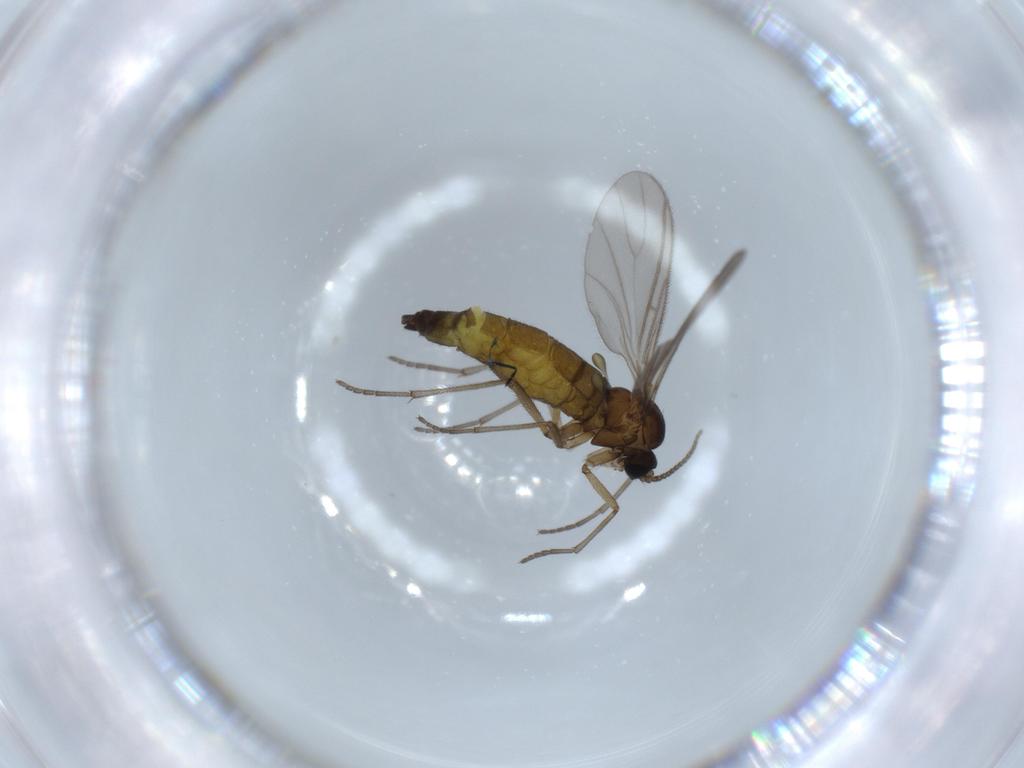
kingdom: Animalia
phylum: Arthropoda
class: Insecta
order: Diptera
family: Sciaridae
